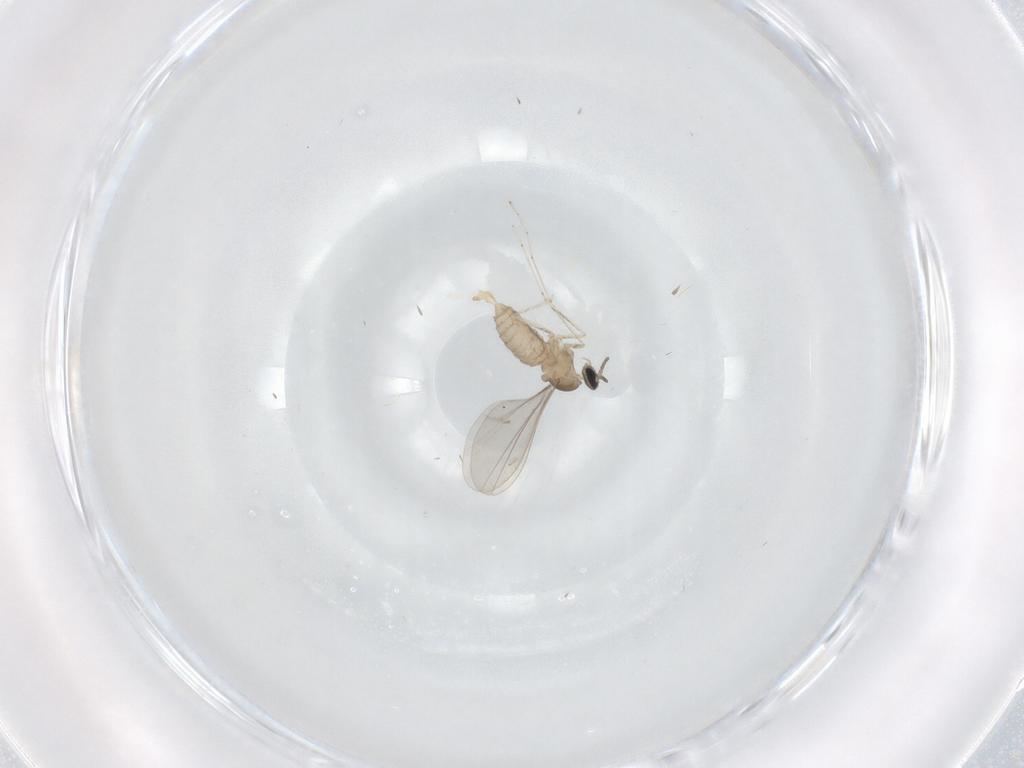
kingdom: Animalia
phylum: Arthropoda
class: Insecta
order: Diptera
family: Cecidomyiidae
